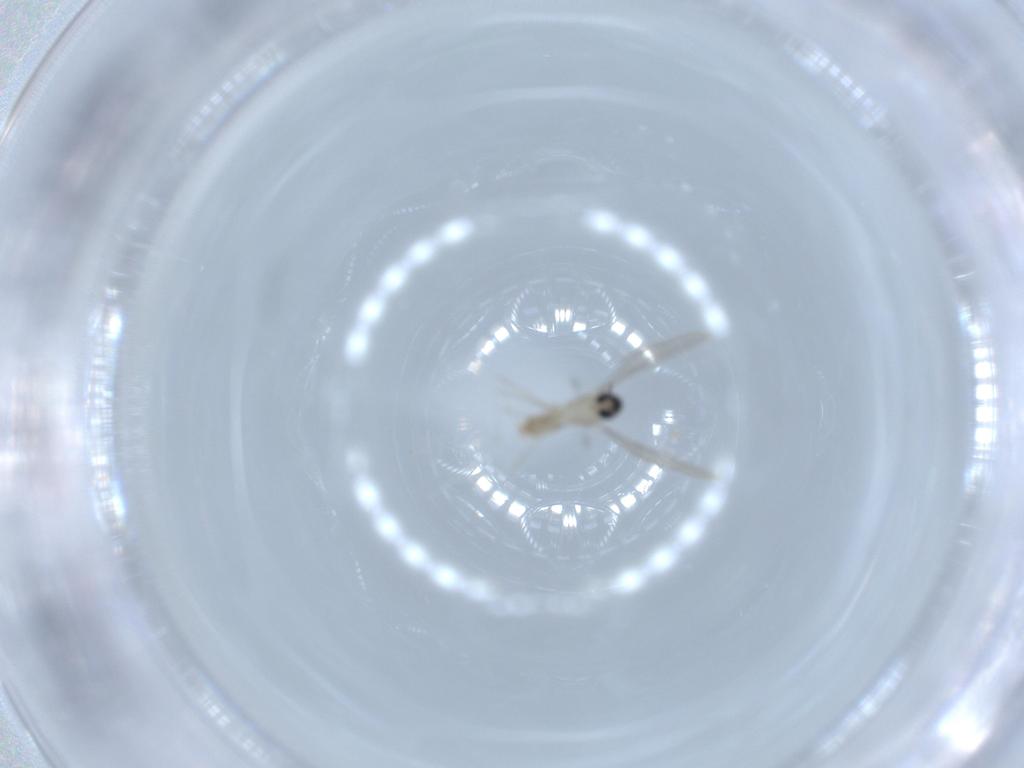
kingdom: Animalia
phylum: Arthropoda
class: Insecta
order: Diptera
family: Cecidomyiidae
